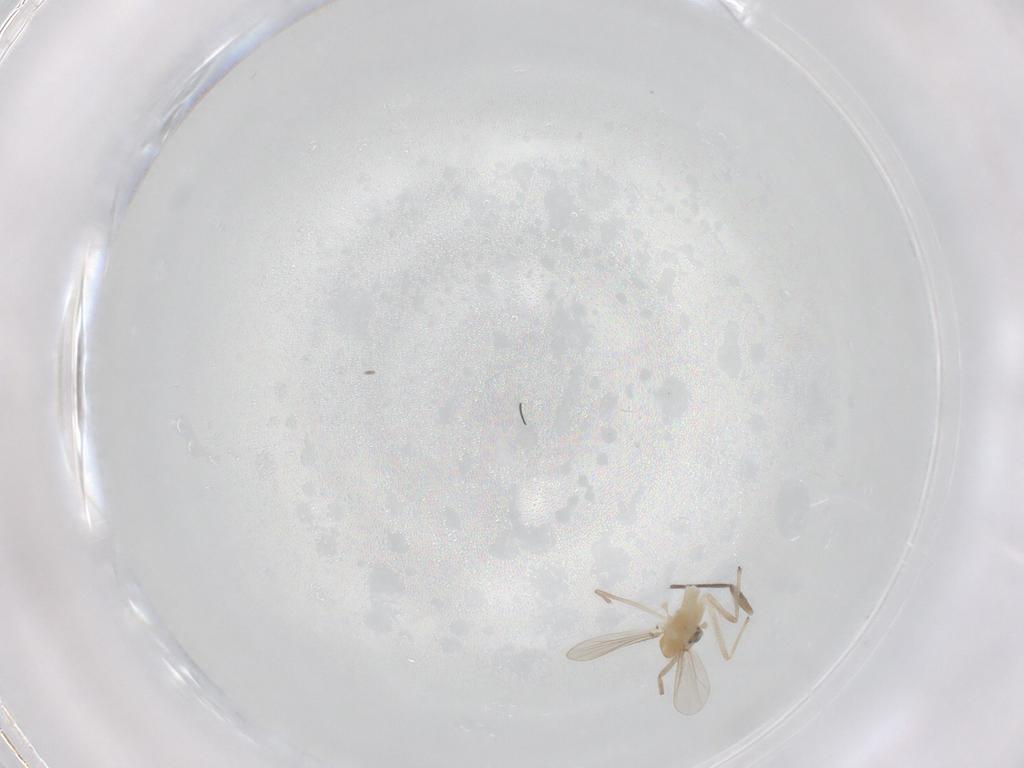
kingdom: Animalia
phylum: Arthropoda
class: Insecta
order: Diptera
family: Chironomidae
